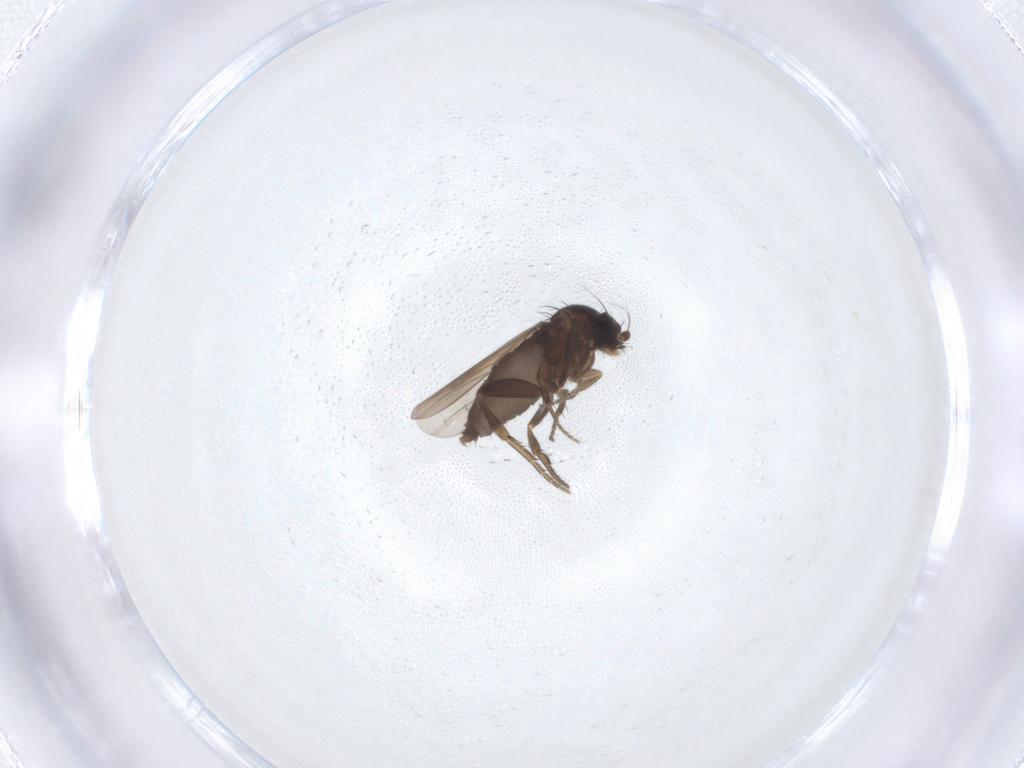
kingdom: Animalia
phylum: Arthropoda
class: Insecta
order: Diptera
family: Phoridae
